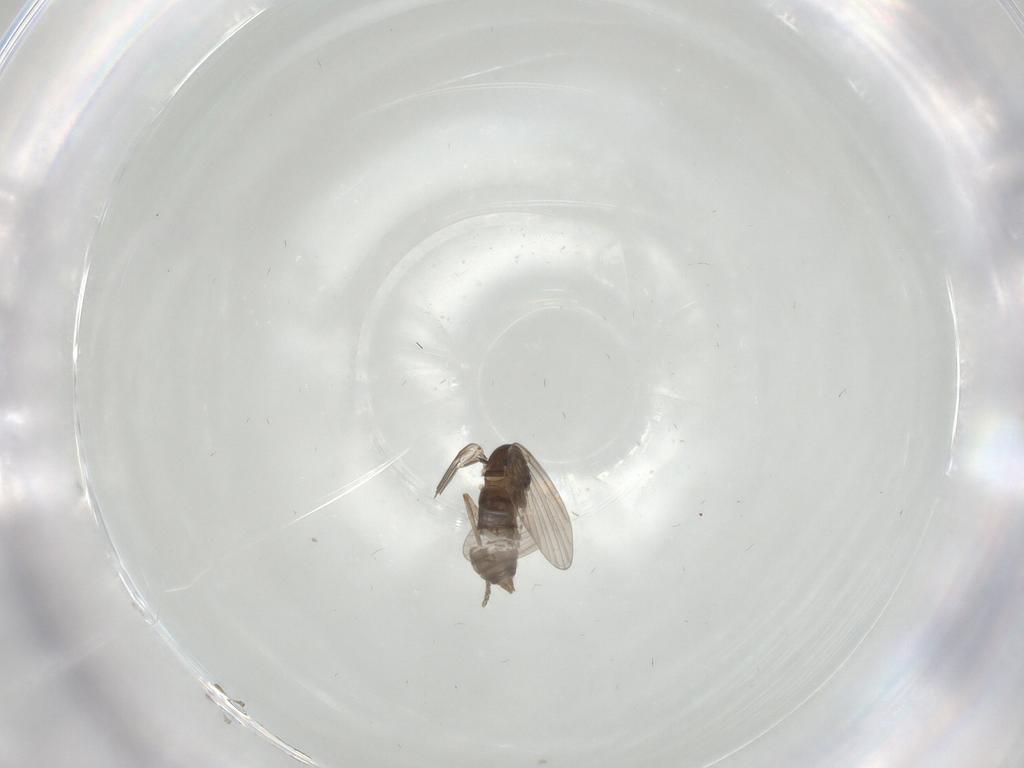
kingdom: Animalia
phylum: Arthropoda
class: Insecta
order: Diptera
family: Psychodidae
